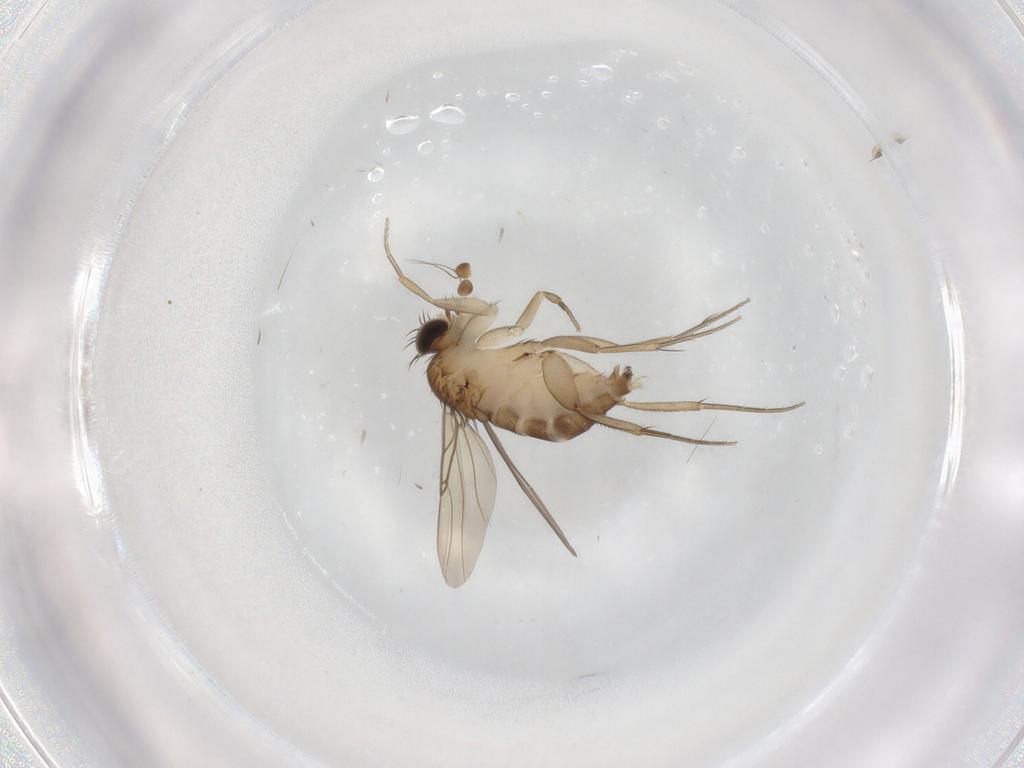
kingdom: Animalia
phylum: Arthropoda
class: Insecta
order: Diptera
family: Phoridae
